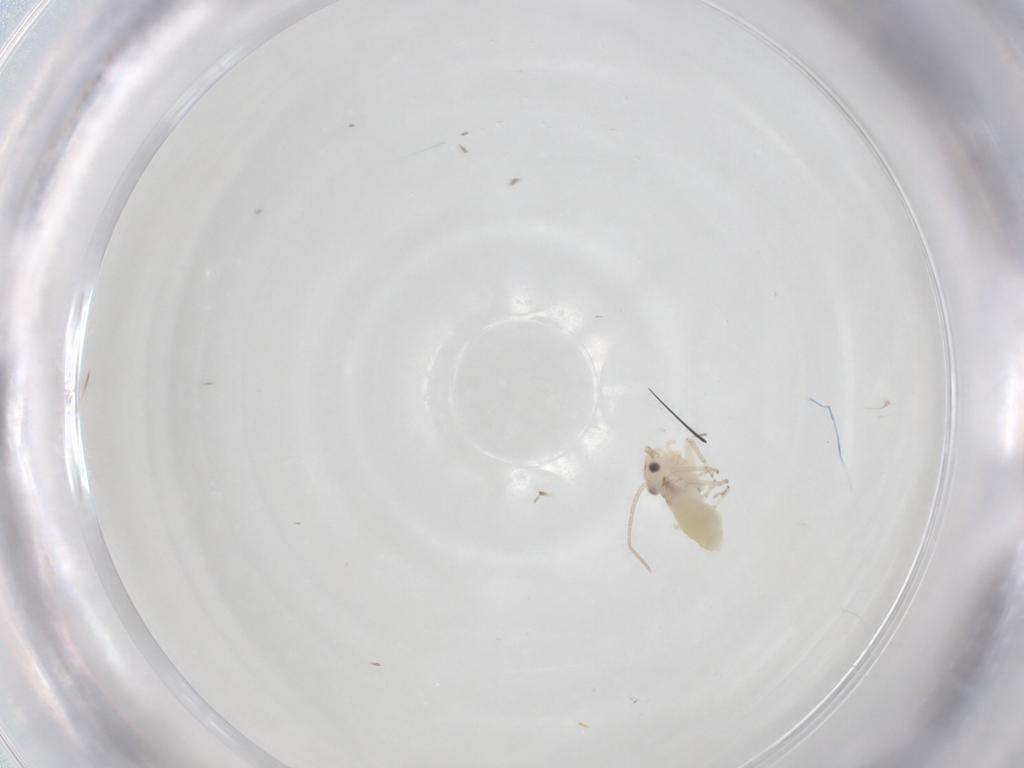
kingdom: Animalia
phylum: Arthropoda
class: Insecta
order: Psocodea
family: Caeciliusidae
